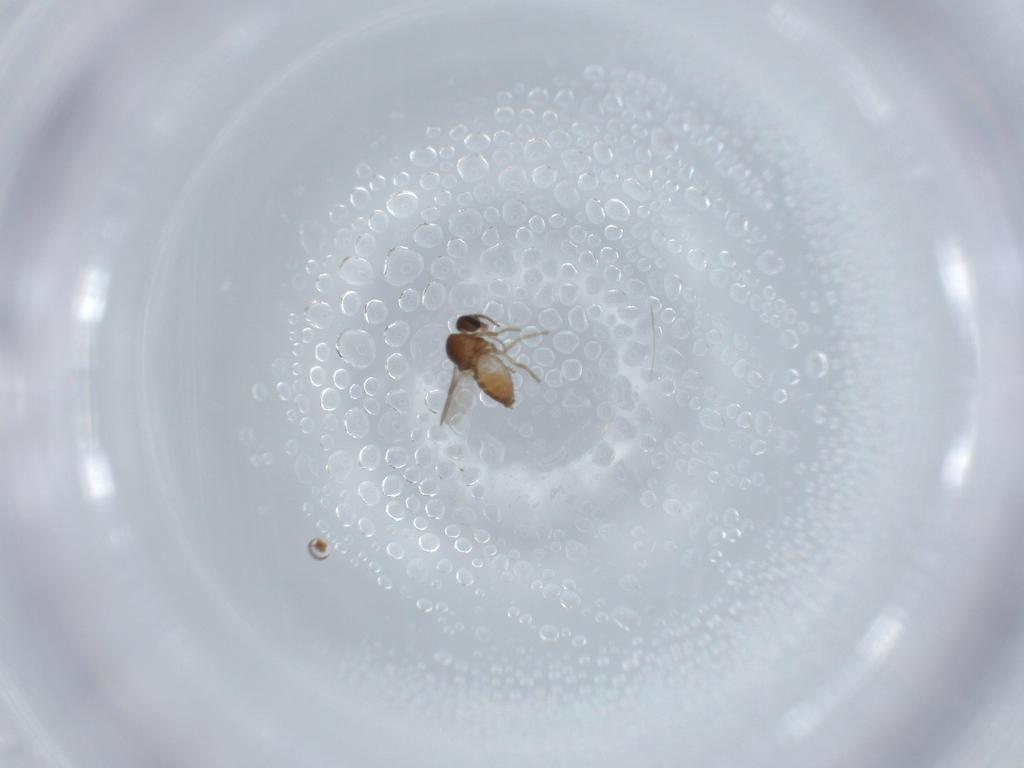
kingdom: Animalia
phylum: Arthropoda
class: Insecta
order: Diptera
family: Ceratopogonidae
